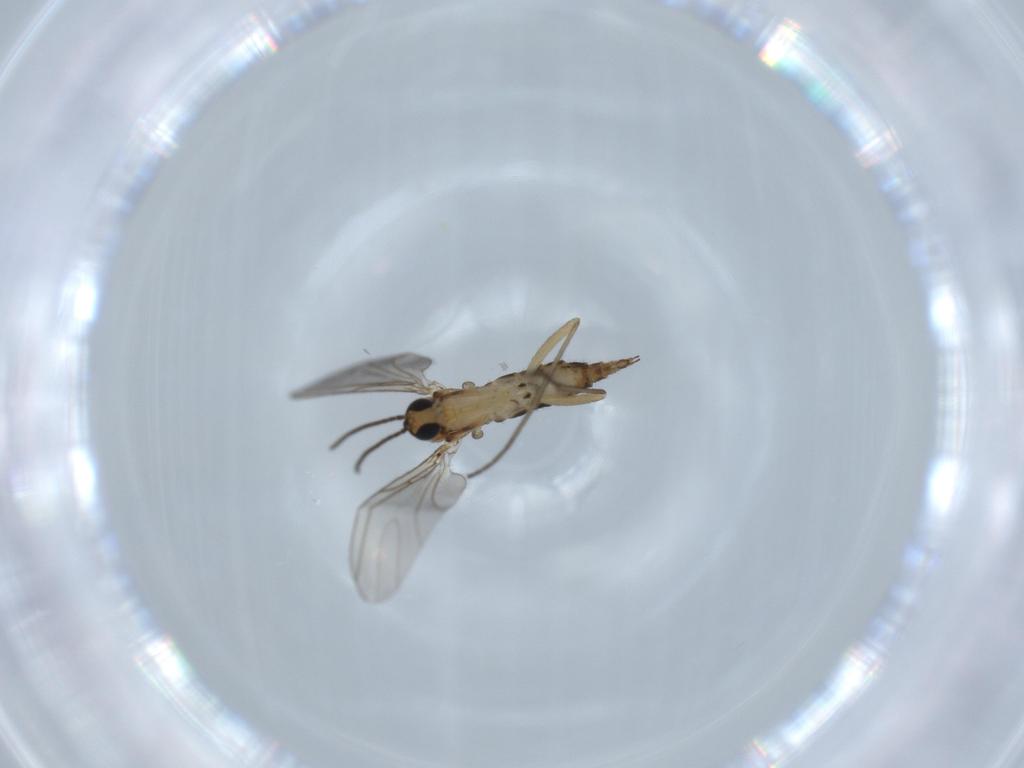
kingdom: Animalia
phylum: Arthropoda
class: Insecta
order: Diptera
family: Sciaridae
